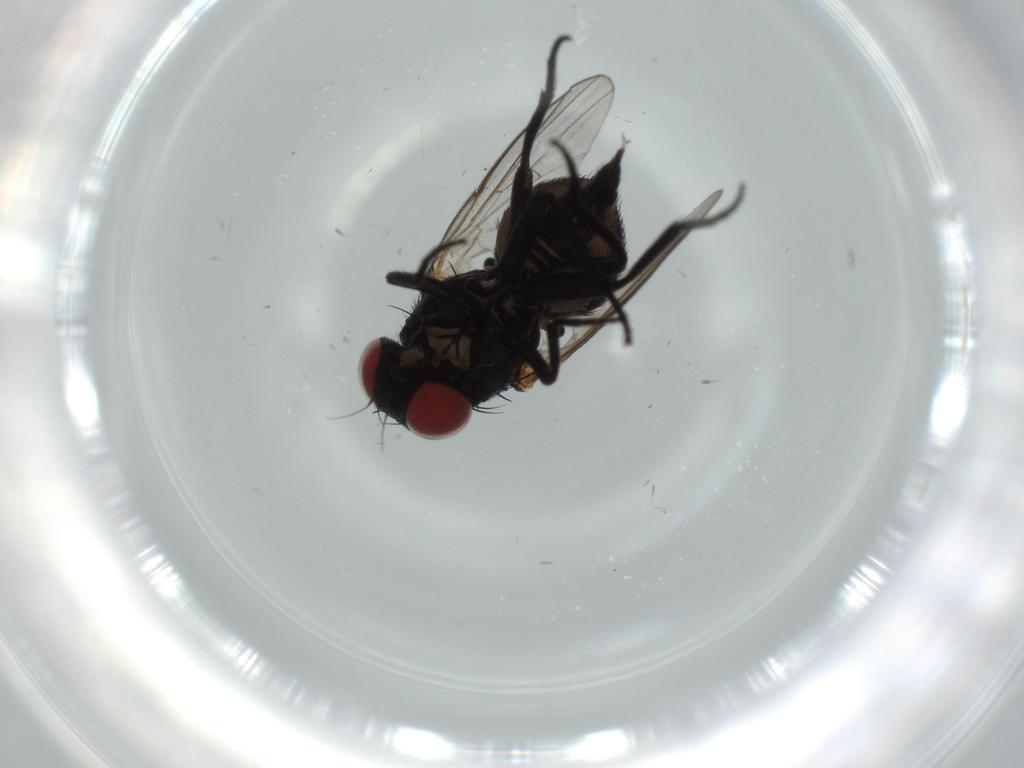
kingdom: Animalia
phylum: Arthropoda
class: Insecta
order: Diptera
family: Agromyzidae
